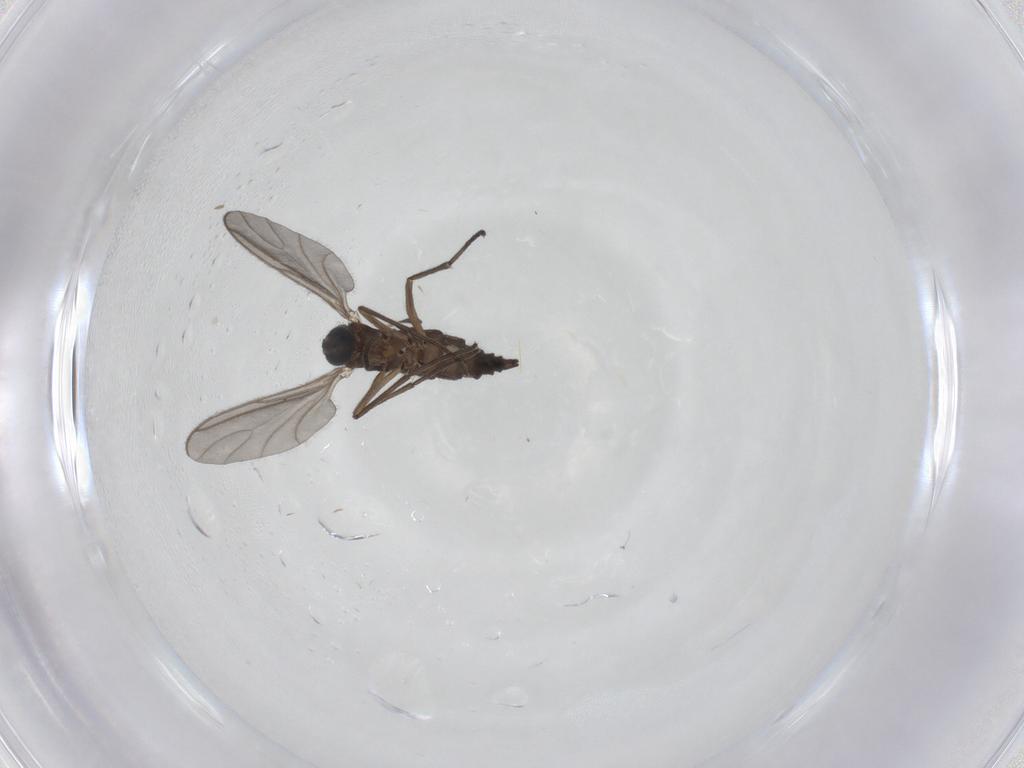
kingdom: Animalia
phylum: Arthropoda
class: Insecta
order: Diptera
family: Sciaridae
